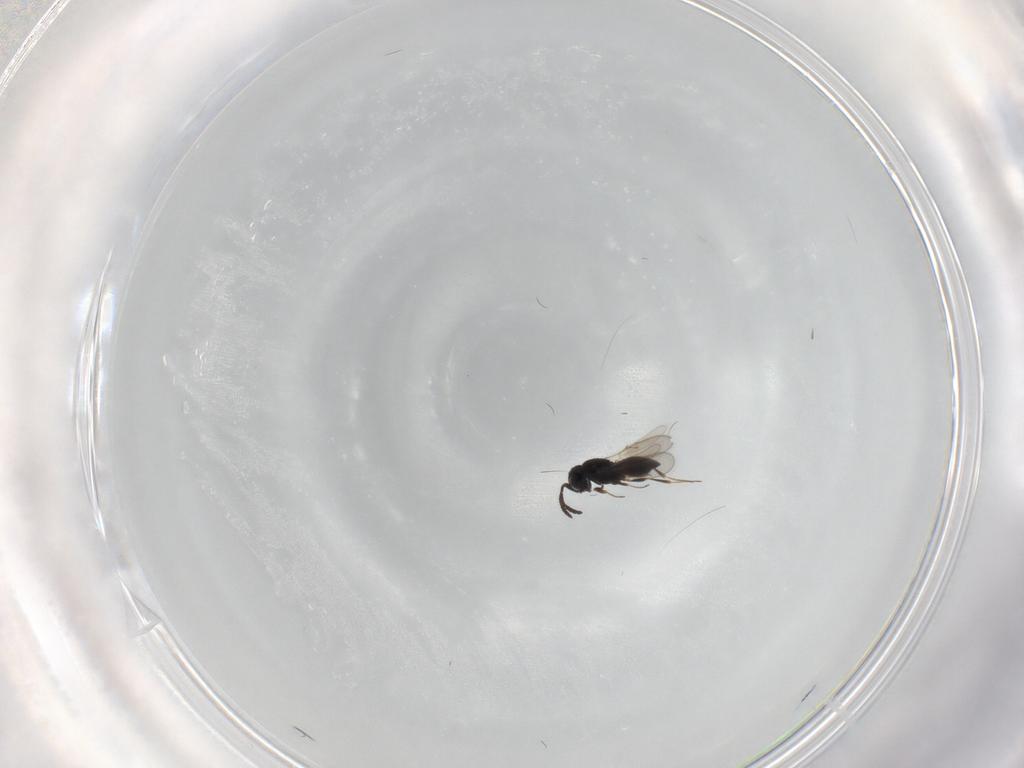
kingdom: Animalia
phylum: Arthropoda
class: Insecta
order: Hymenoptera
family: Scelionidae
